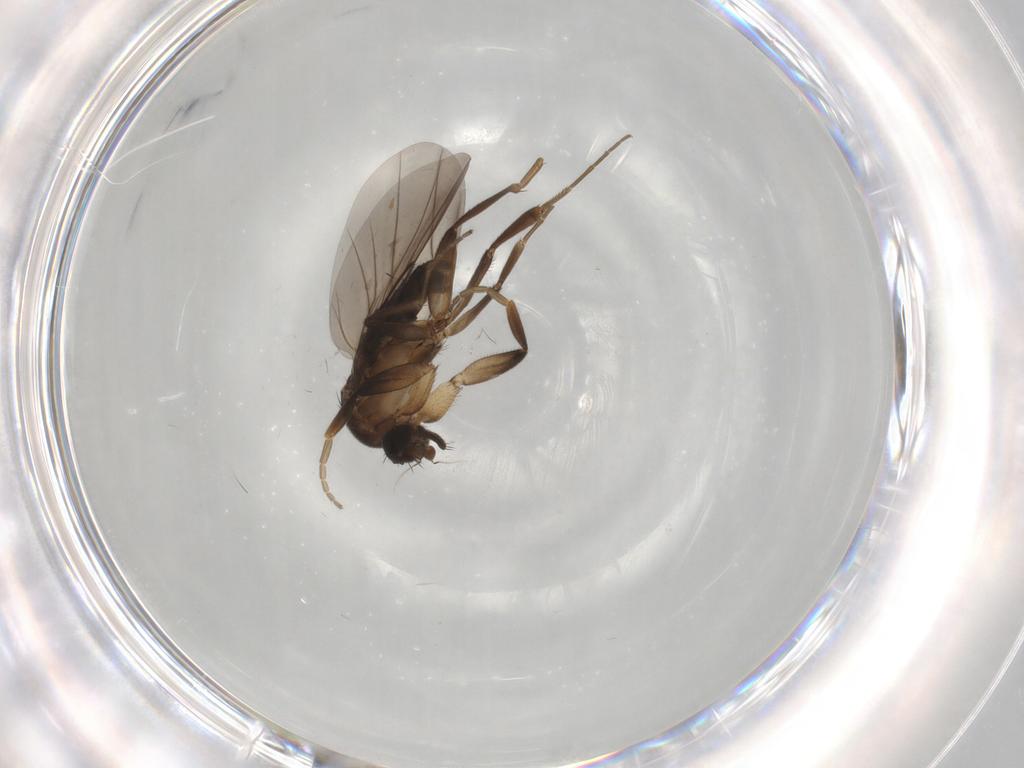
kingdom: Animalia
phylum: Arthropoda
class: Insecta
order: Diptera
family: Phoridae
